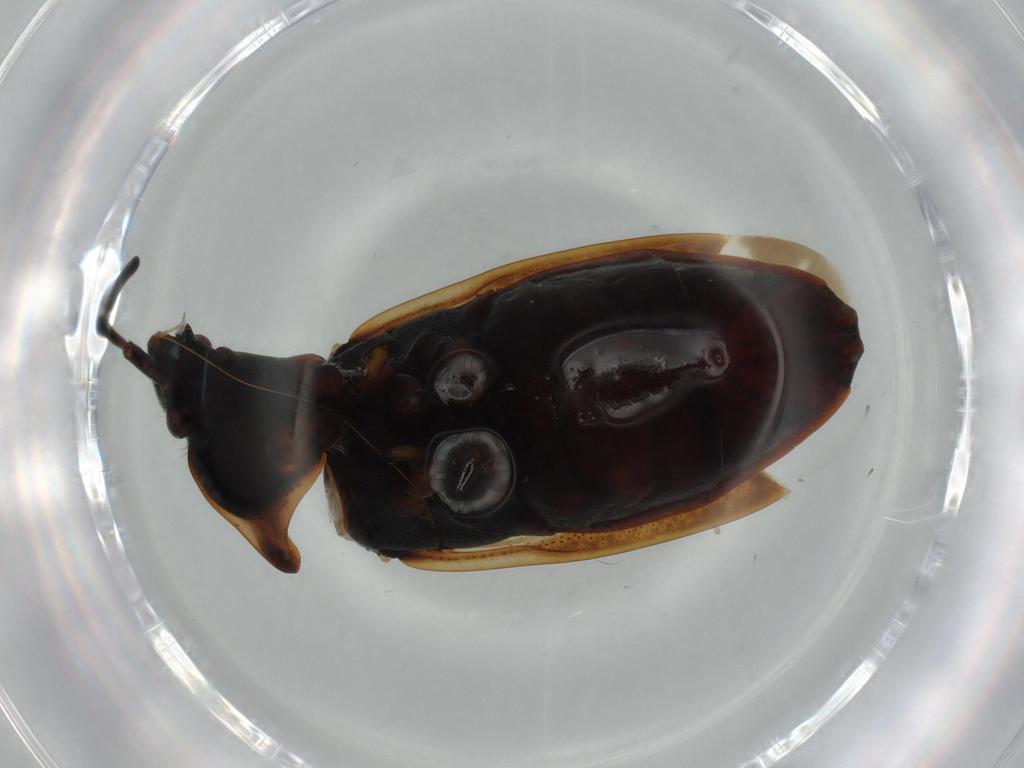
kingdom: Animalia
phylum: Arthropoda
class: Insecta
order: Hemiptera
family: Rhyparochromidae
